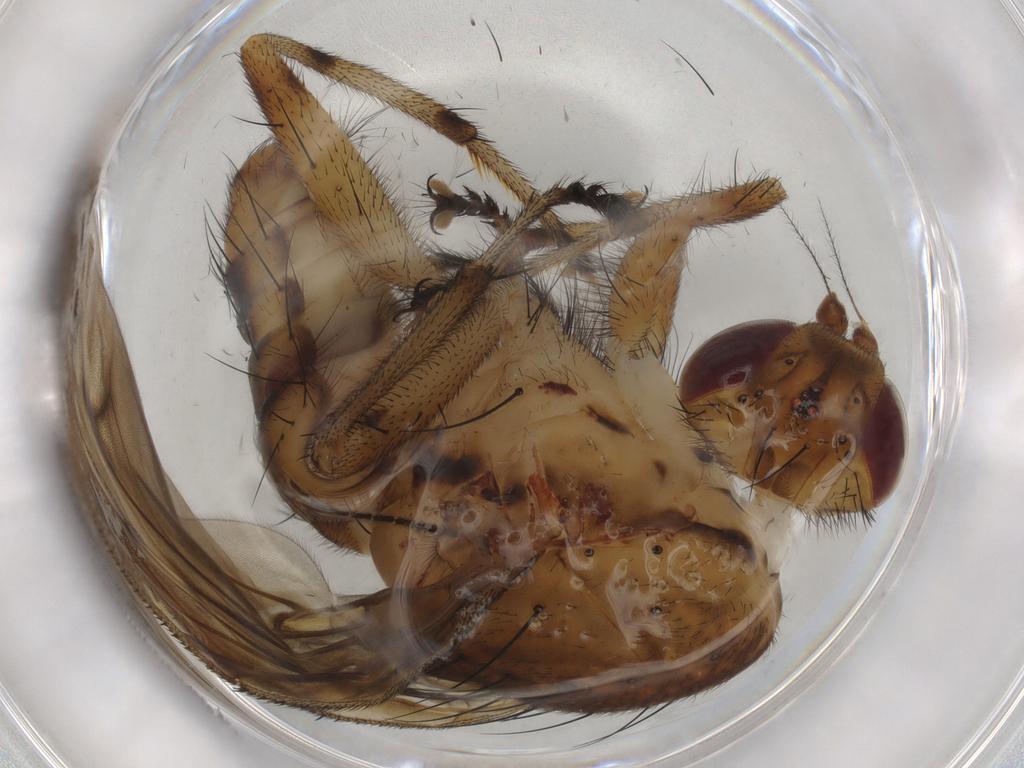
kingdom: Animalia
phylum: Arthropoda
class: Insecta
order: Diptera
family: Heleomyzidae
